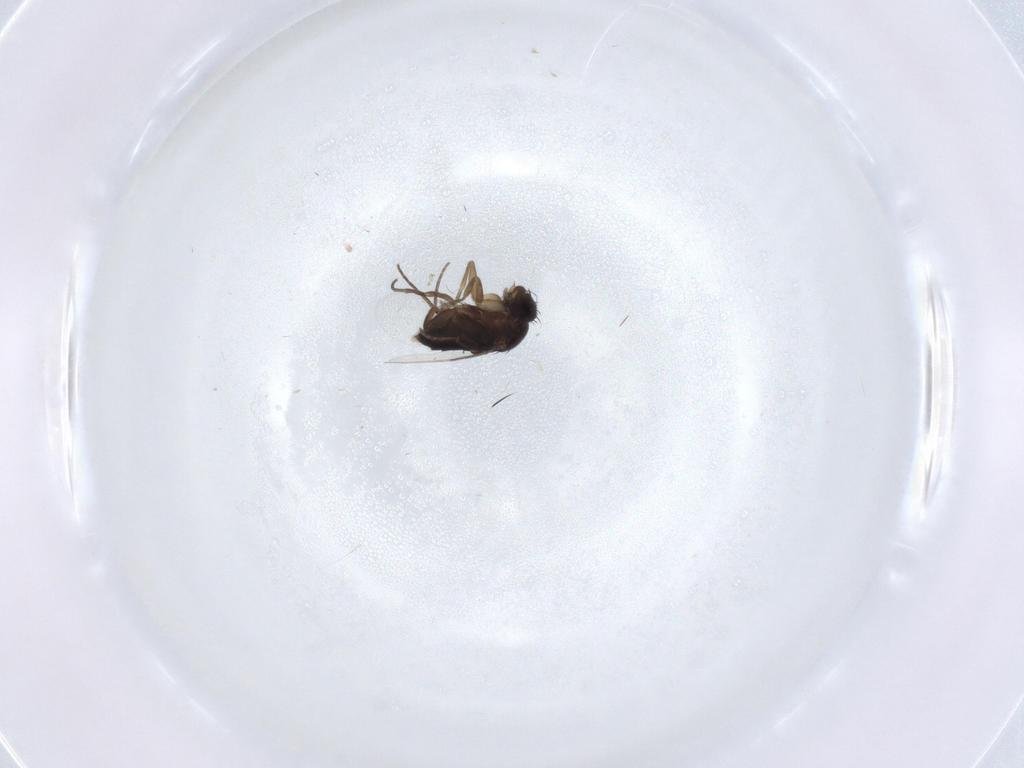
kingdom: Animalia
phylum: Arthropoda
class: Insecta
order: Diptera
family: Phoridae
